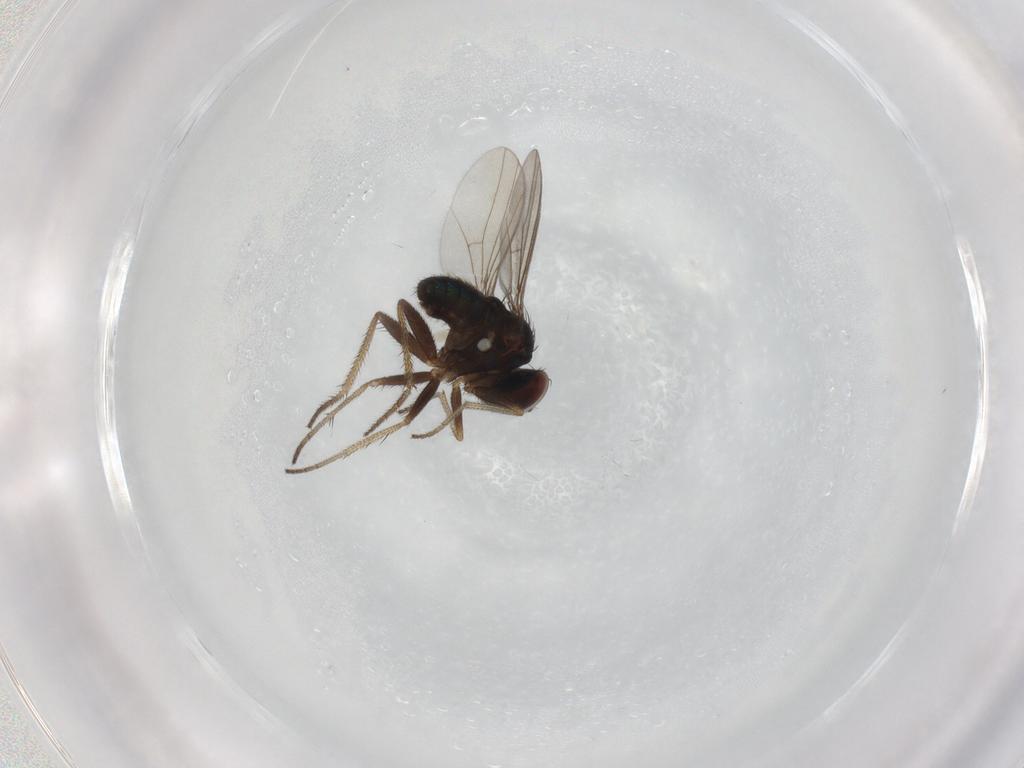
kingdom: Animalia
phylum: Arthropoda
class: Insecta
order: Diptera
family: Dolichopodidae
